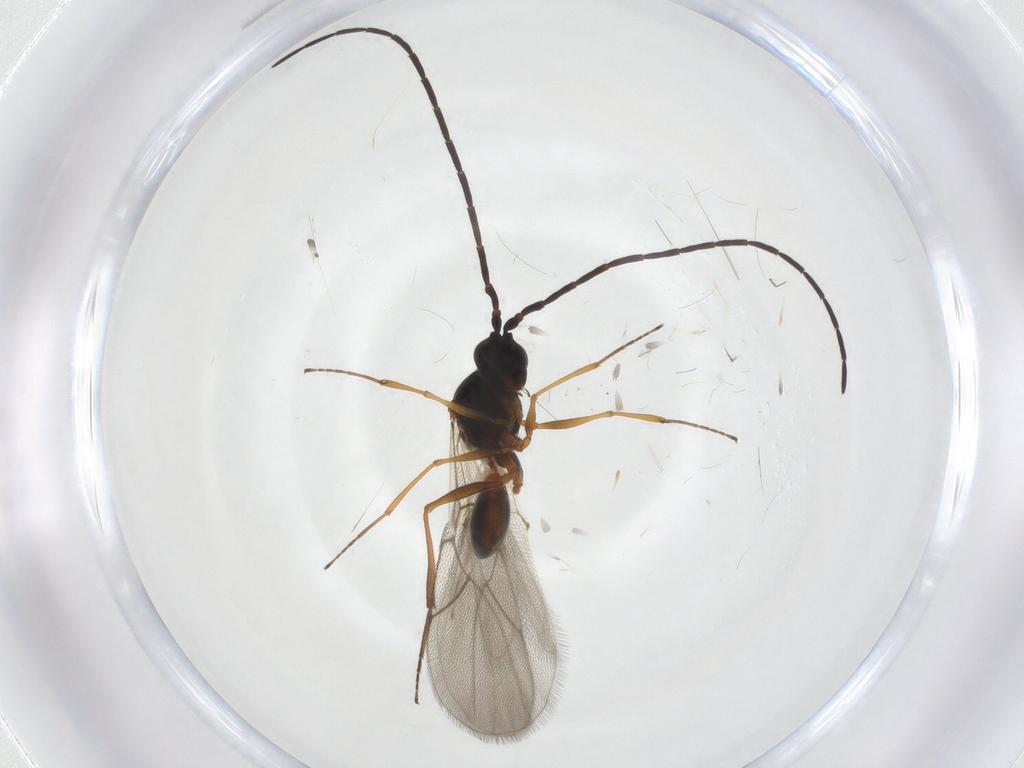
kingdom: Animalia
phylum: Arthropoda
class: Insecta
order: Hymenoptera
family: Figitidae
